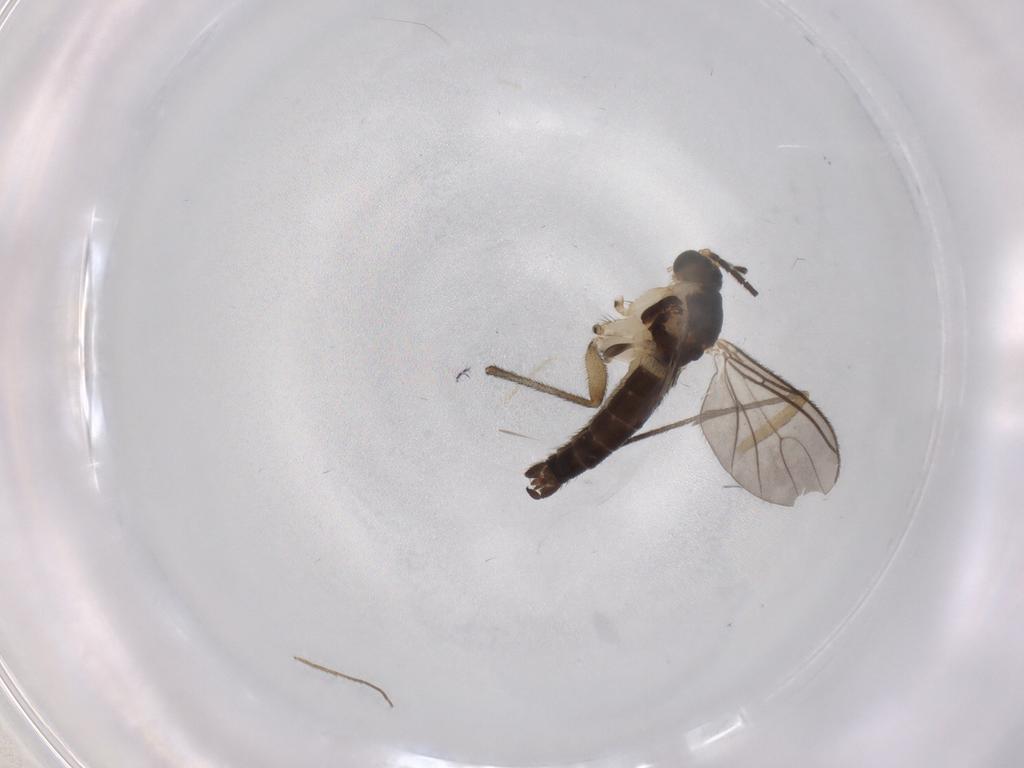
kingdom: Animalia
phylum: Arthropoda
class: Insecta
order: Diptera
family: Sciaridae
